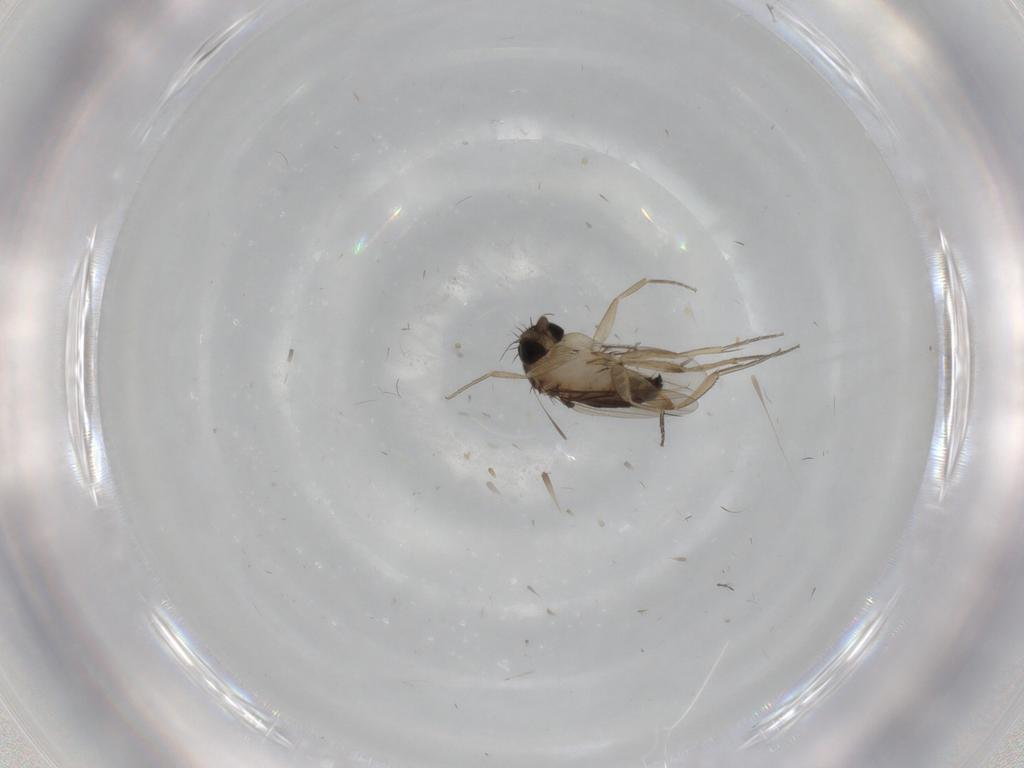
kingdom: Animalia
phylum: Arthropoda
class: Insecta
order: Diptera
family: Phoridae
